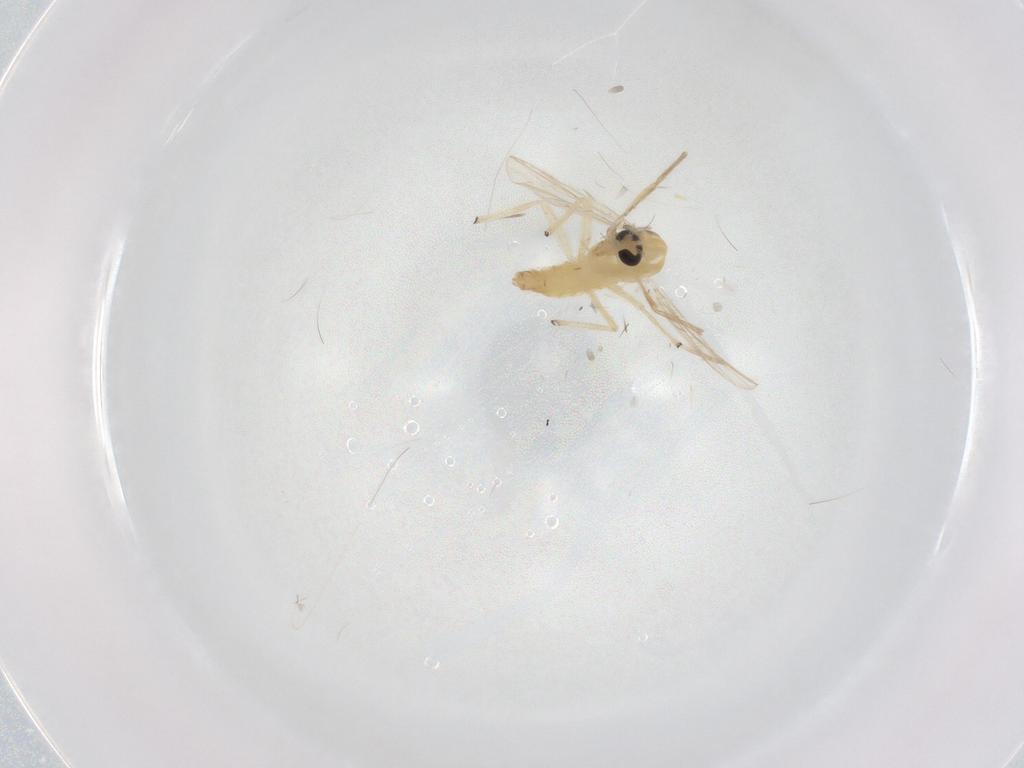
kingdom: Animalia
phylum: Arthropoda
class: Insecta
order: Diptera
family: Chironomidae
